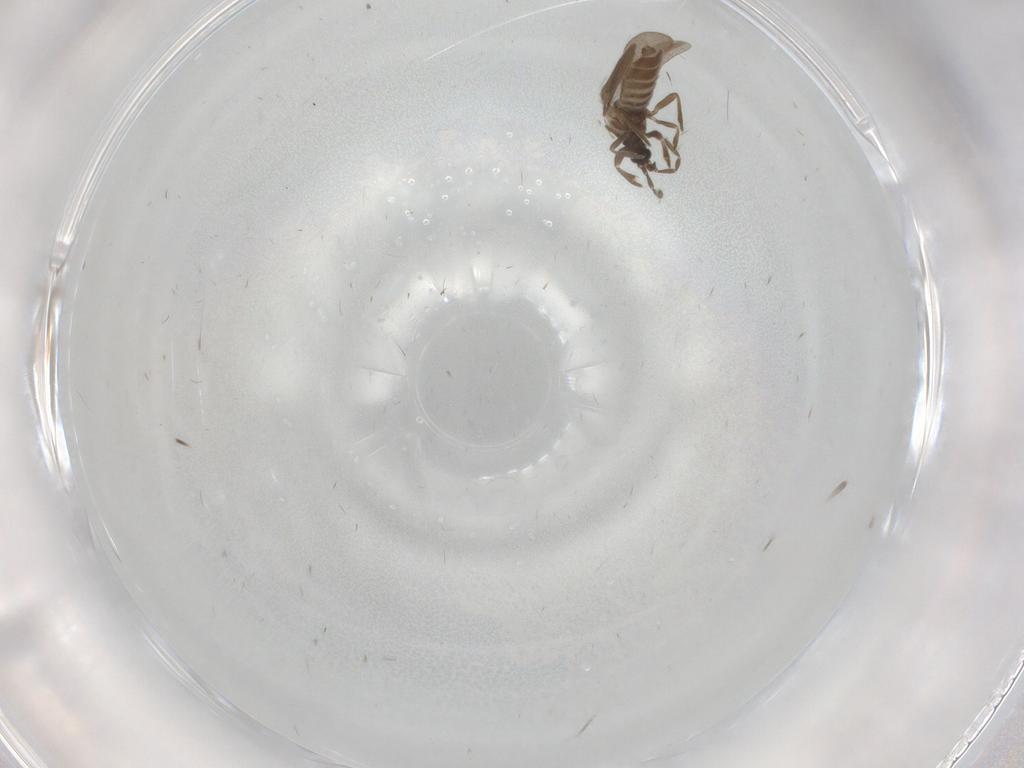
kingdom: Animalia
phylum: Arthropoda
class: Insecta
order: Hemiptera
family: Enicocephalidae
